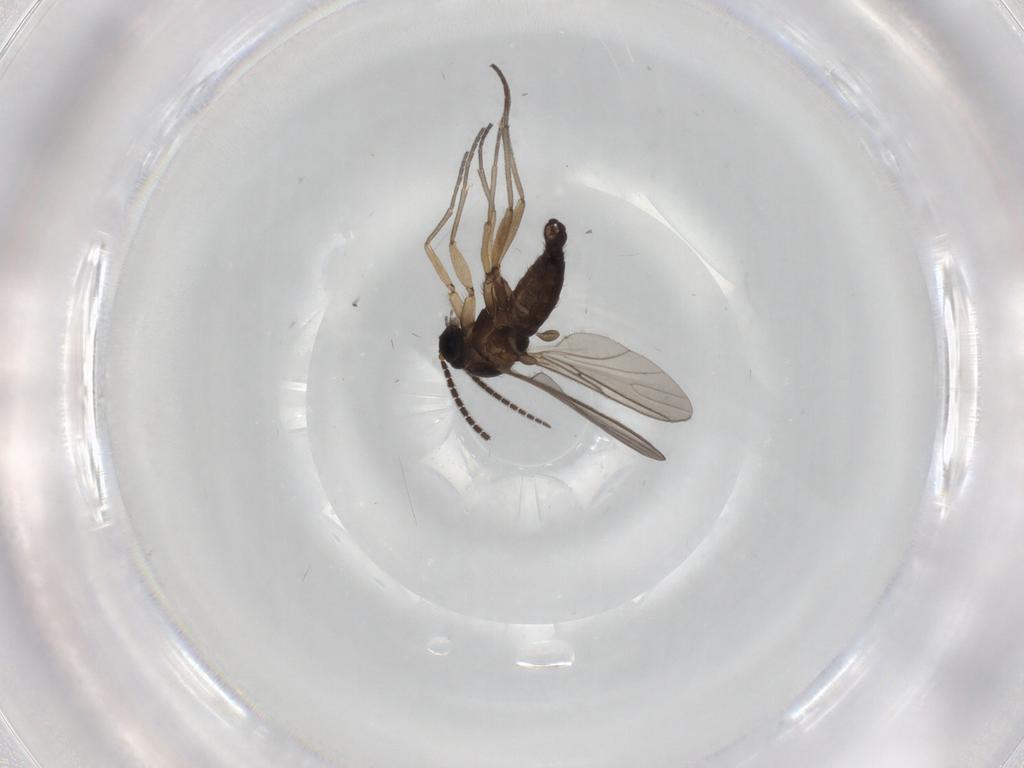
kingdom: Animalia
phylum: Arthropoda
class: Insecta
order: Diptera
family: Sciaridae
